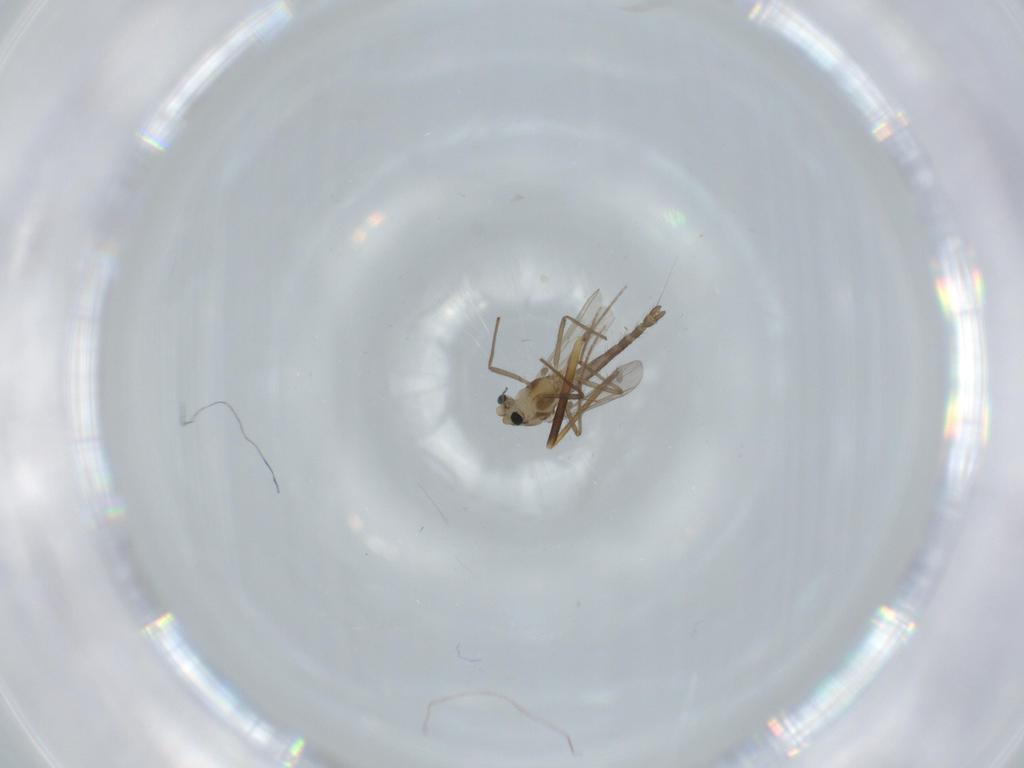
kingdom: Animalia
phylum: Arthropoda
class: Insecta
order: Diptera
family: Chironomidae
